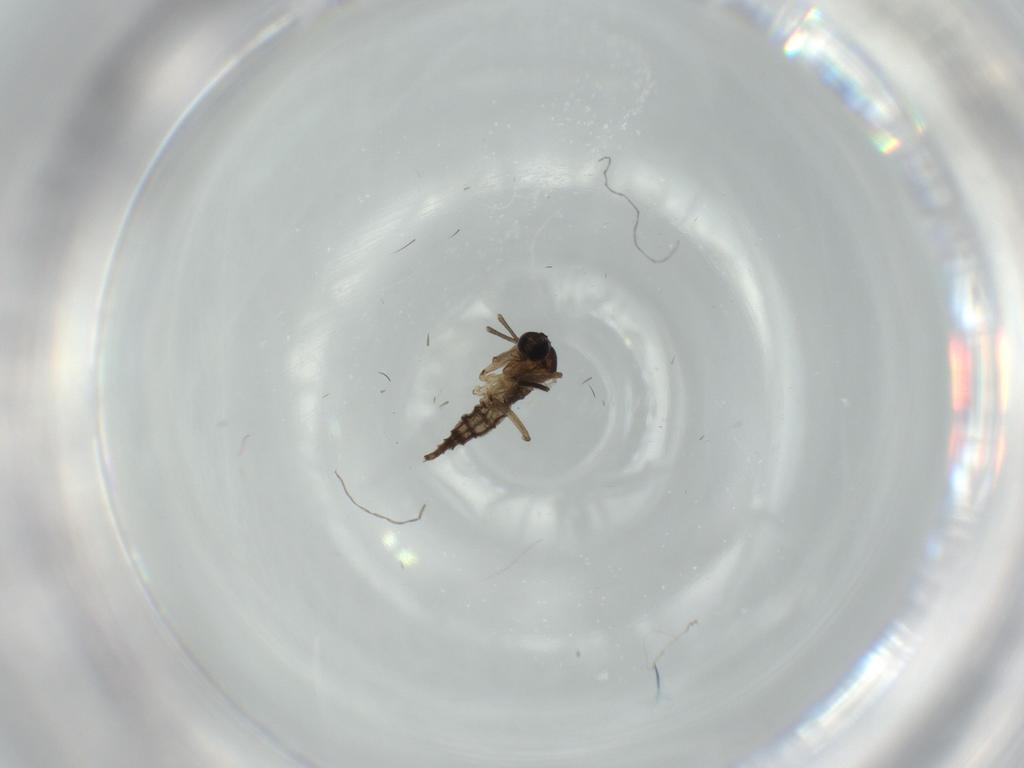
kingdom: Animalia
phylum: Arthropoda
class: Insecta
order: Diptera
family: Sciaridae
